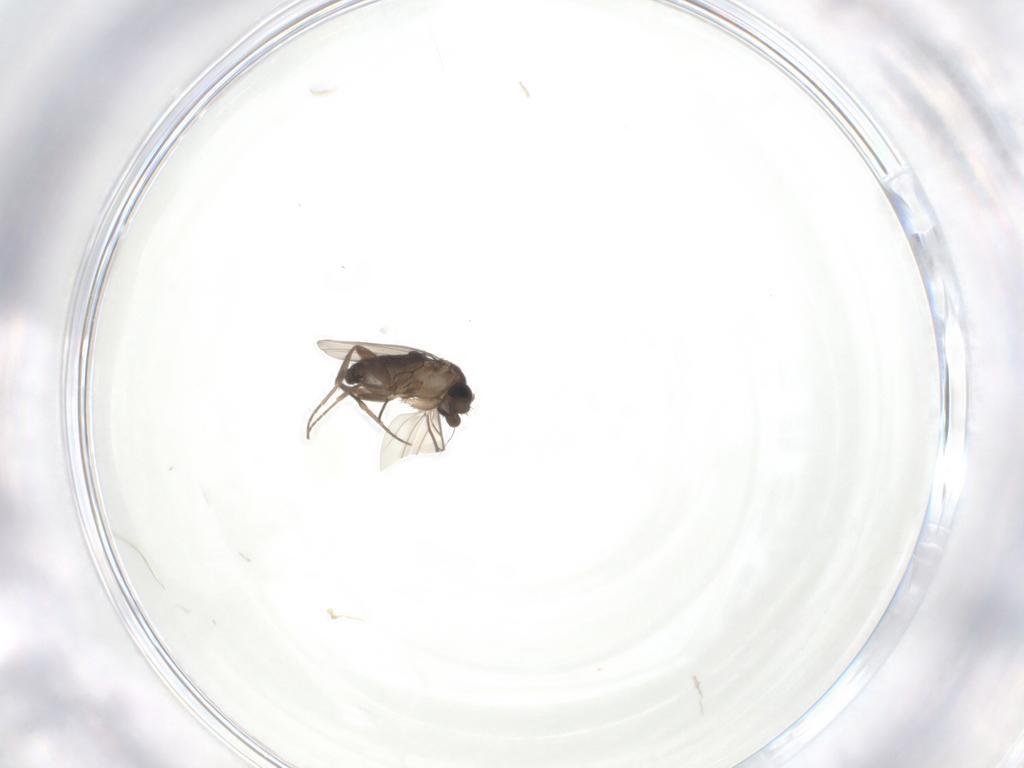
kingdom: Animalia
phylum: Arthropoda
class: Insecta
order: Diptera
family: Phoridae
